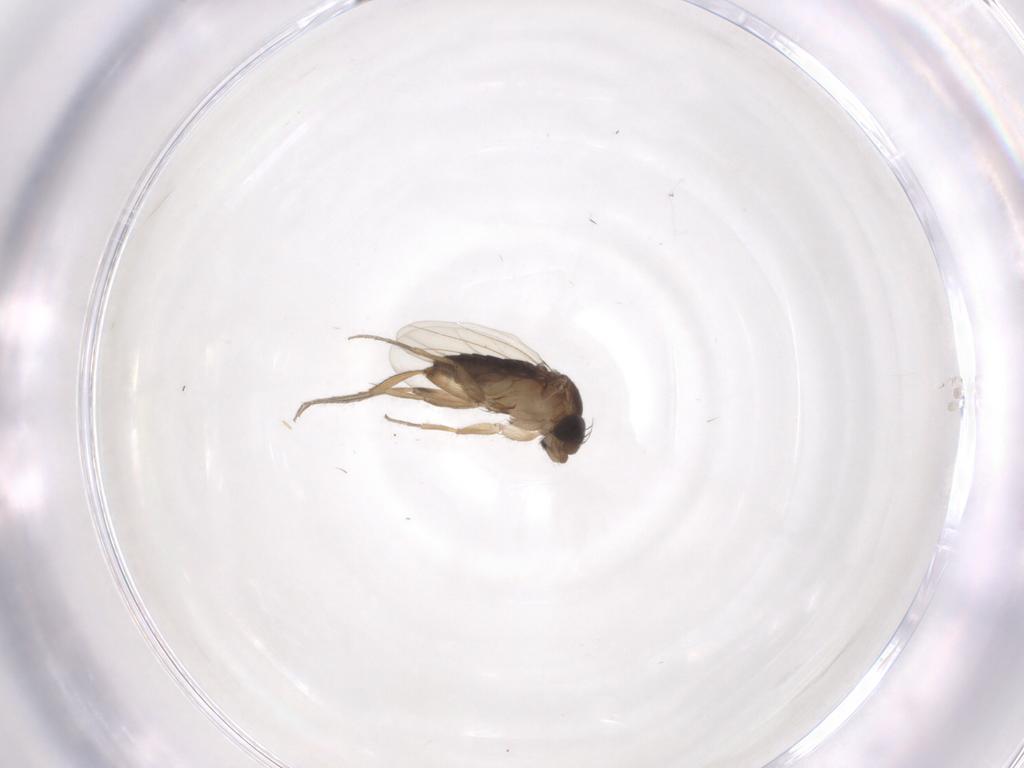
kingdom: Animalia
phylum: Arthropoda
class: Insecta
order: Diptera
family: Sciaridae
